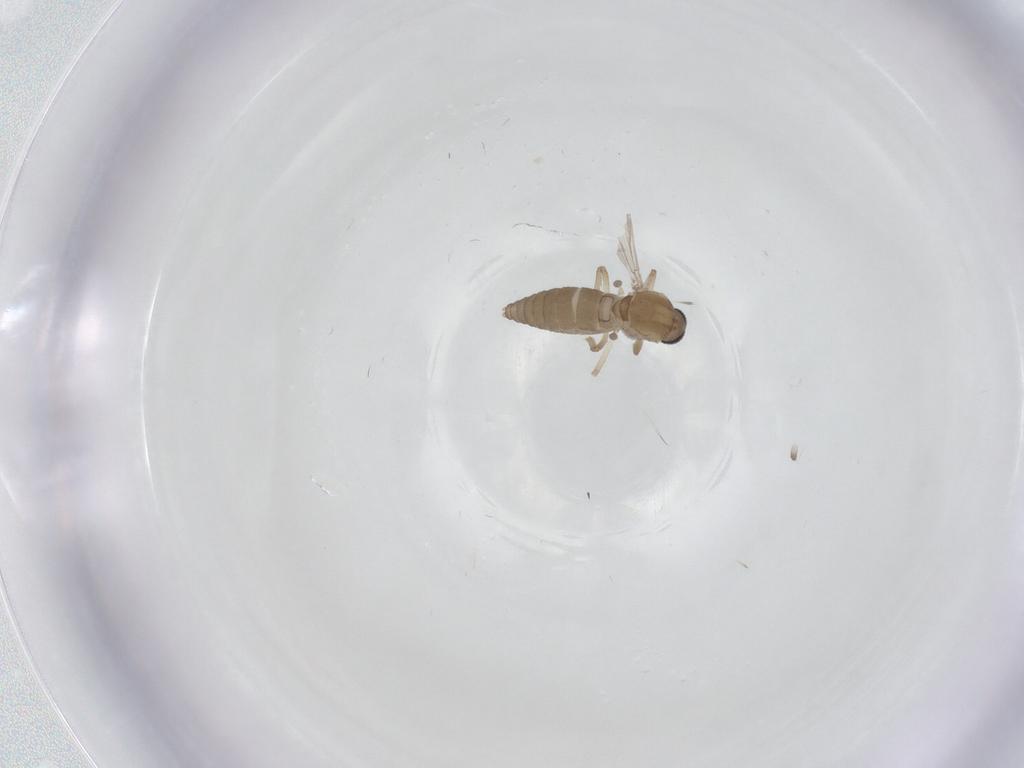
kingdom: Animalia
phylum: Arthropoda
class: Insecta
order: Diptera
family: Ceratopogonidae
